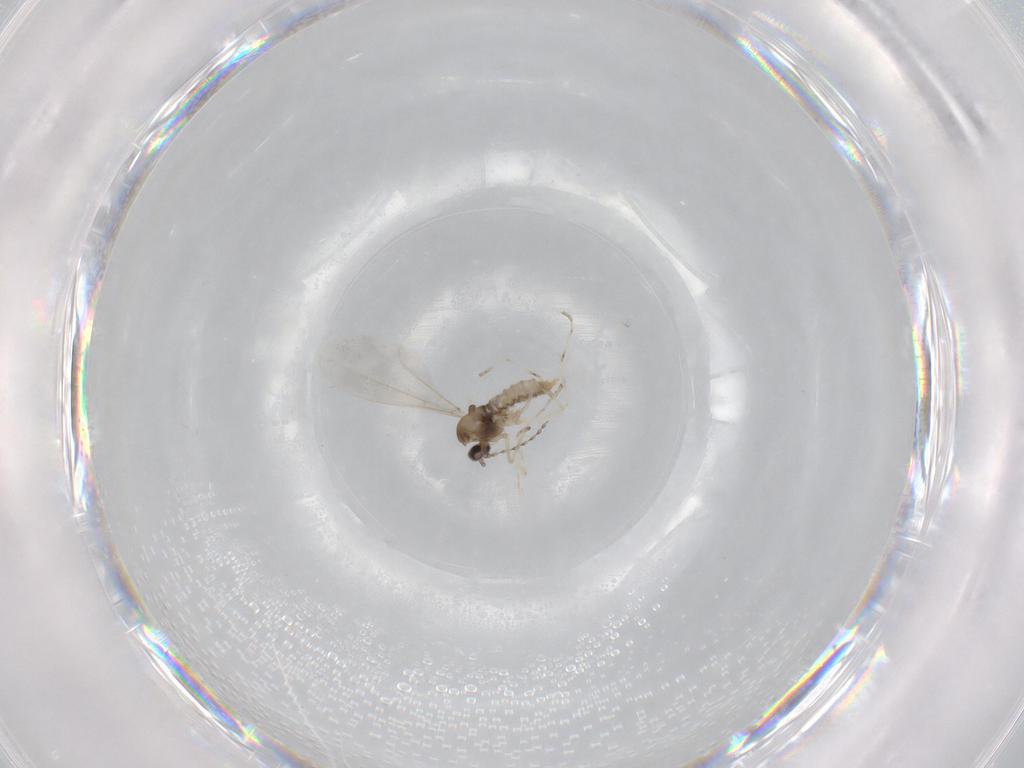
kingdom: Animalia
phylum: Arthropoda
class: Insecta
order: Diptera
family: Cecidomyiidae
